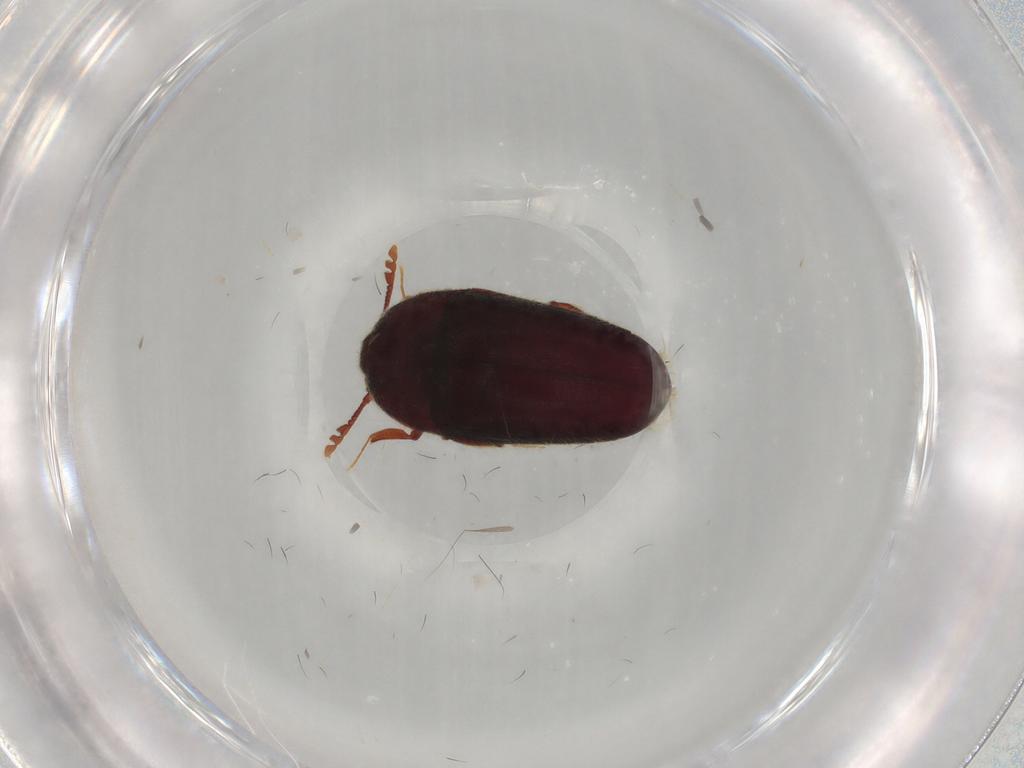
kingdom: Animalia
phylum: Arthropoda
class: Insecta
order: Coleoptera
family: Throscidae
